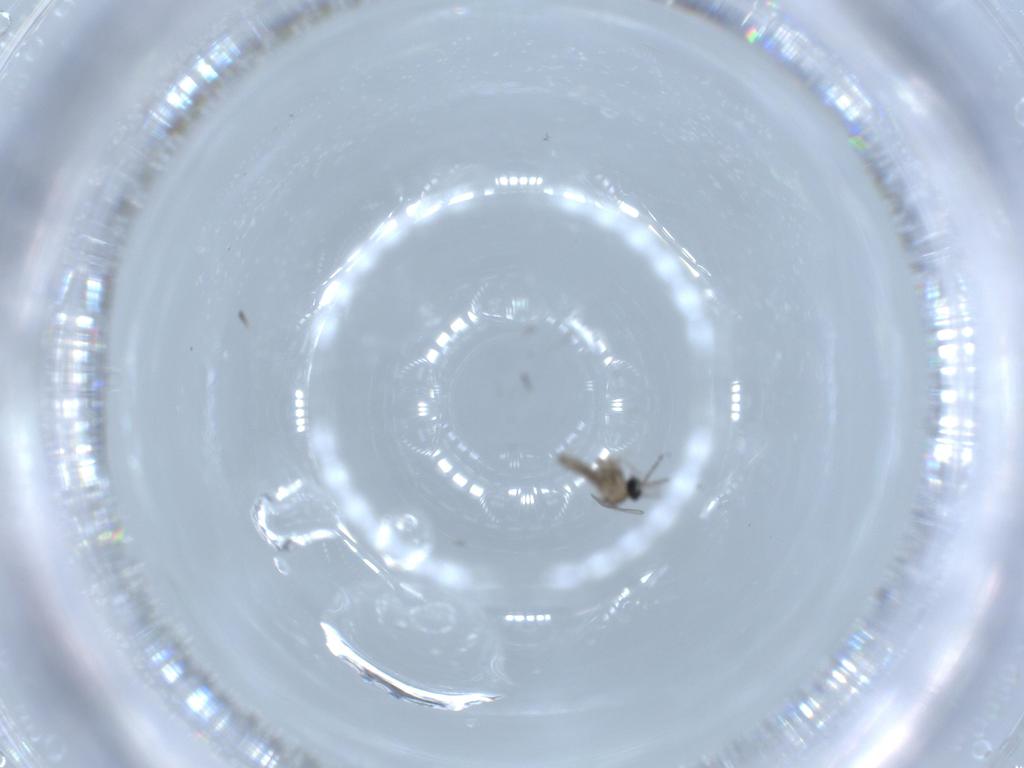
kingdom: Animalia
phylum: Arthropoda
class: Insecta
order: Diptera
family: Cecidomyiidae
